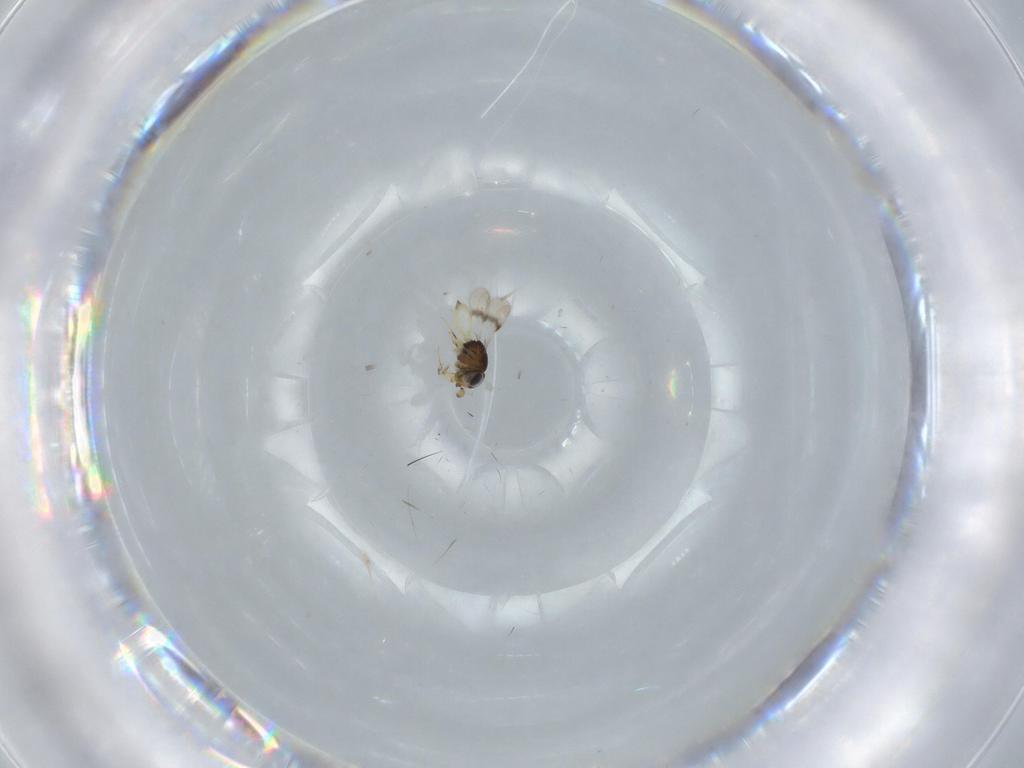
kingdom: Animalia
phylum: Arthropoda
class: Insecta
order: Hymenoptera
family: Scelionidae
